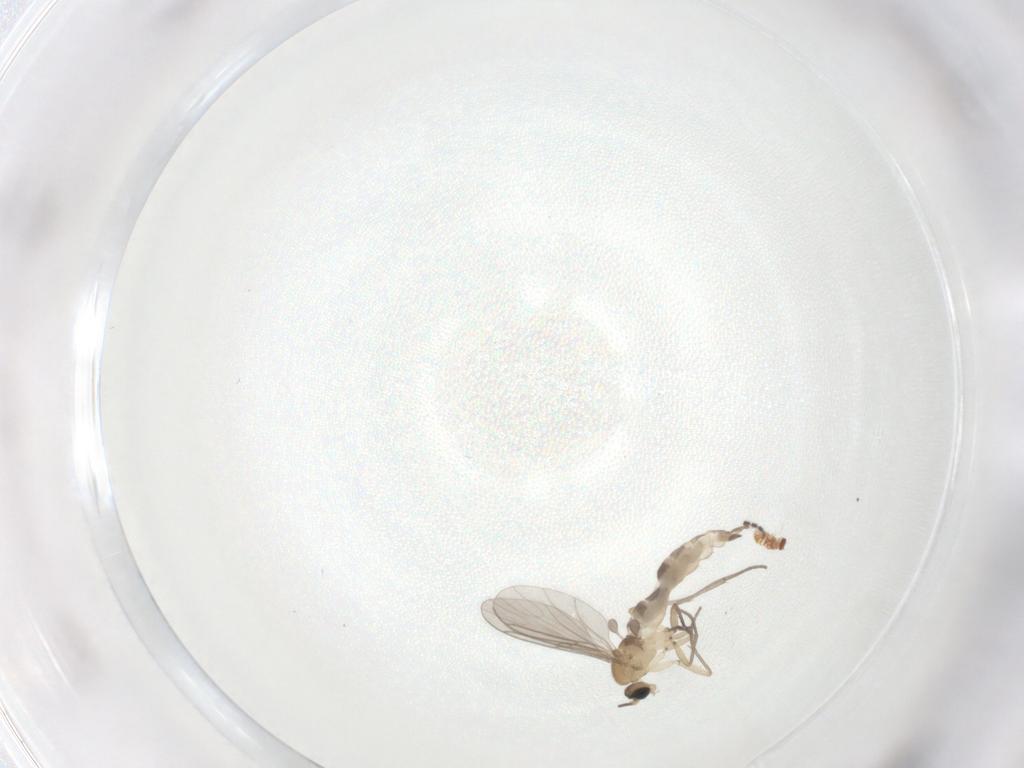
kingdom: Animalia
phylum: Arthropoda
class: Insecta
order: Diptera
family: Sciaridae
